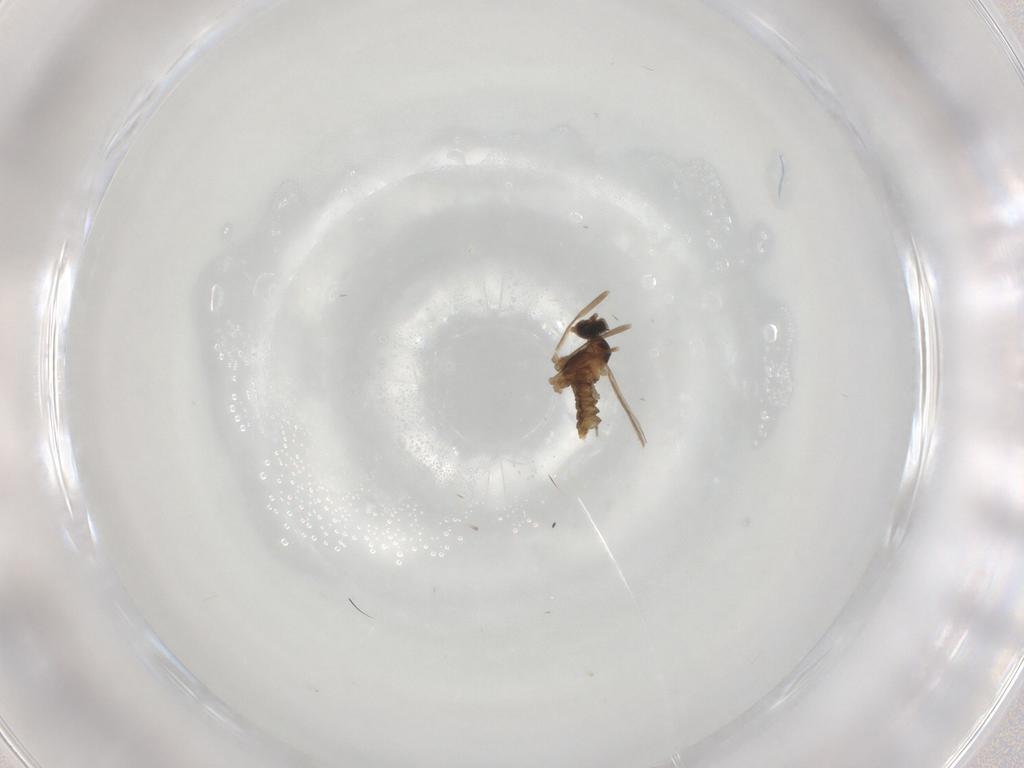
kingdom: Animalia
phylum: Arthropoda
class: Insecta
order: Diptera
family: Cecidomyiidae
